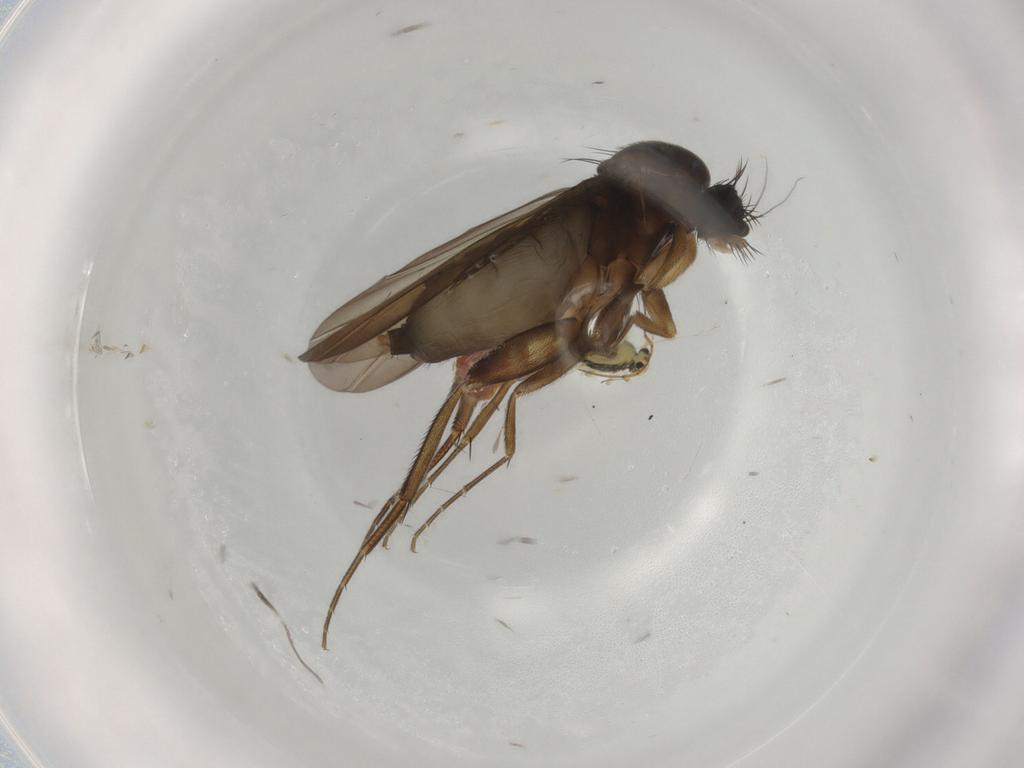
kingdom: Animalia
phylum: Arthropoda
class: Insecta
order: Diptera
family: Phoridae
